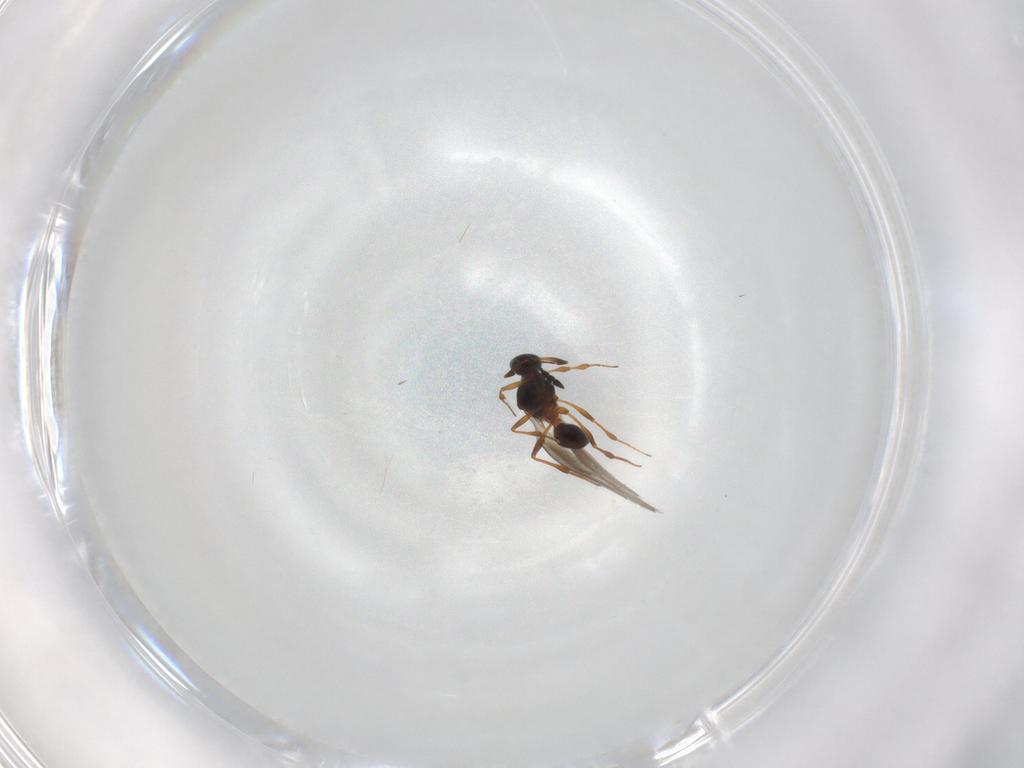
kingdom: Animalia
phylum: Arthropoda
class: Insecta
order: Hymenoptera
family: Platygastridae
